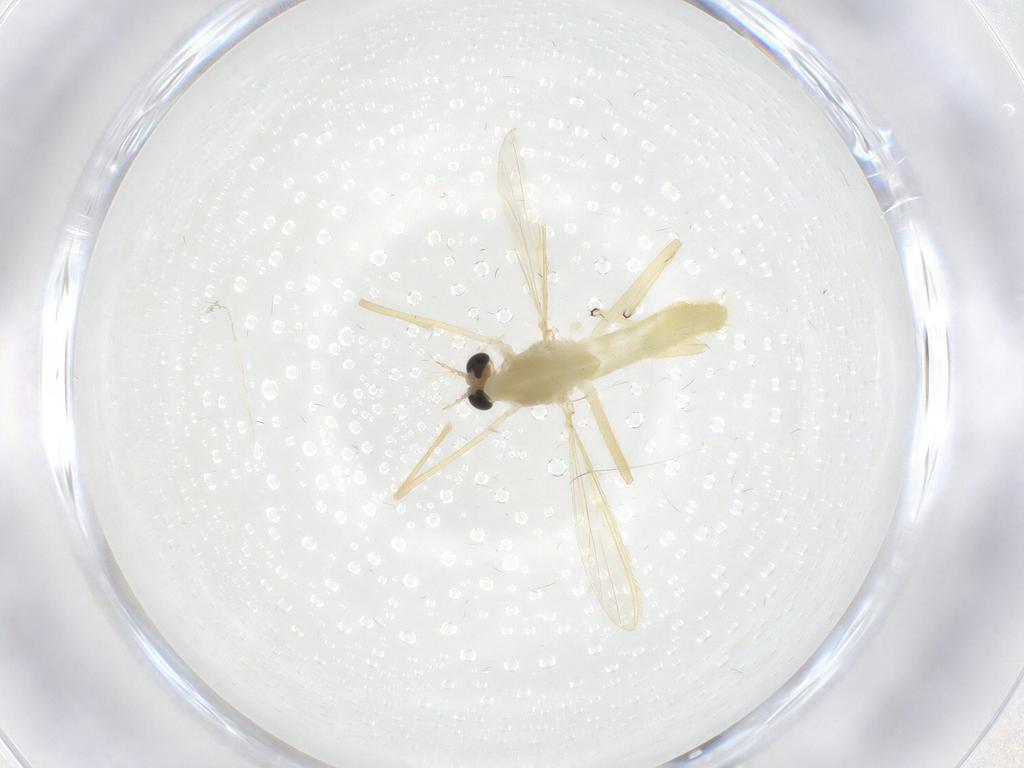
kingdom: Animalia
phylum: Arthropoda
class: Insecta
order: Diptera
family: Chironomidae
